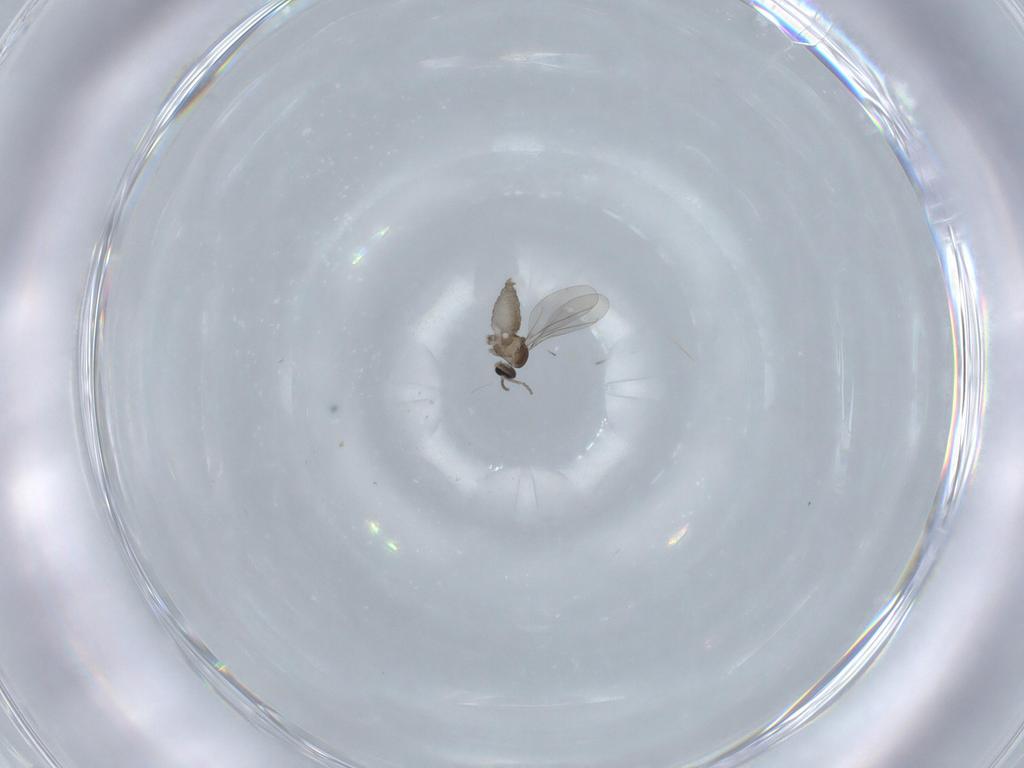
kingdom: Animalia
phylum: Arthropoda
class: Insecta
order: Diptera
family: Cecidomyiidae
